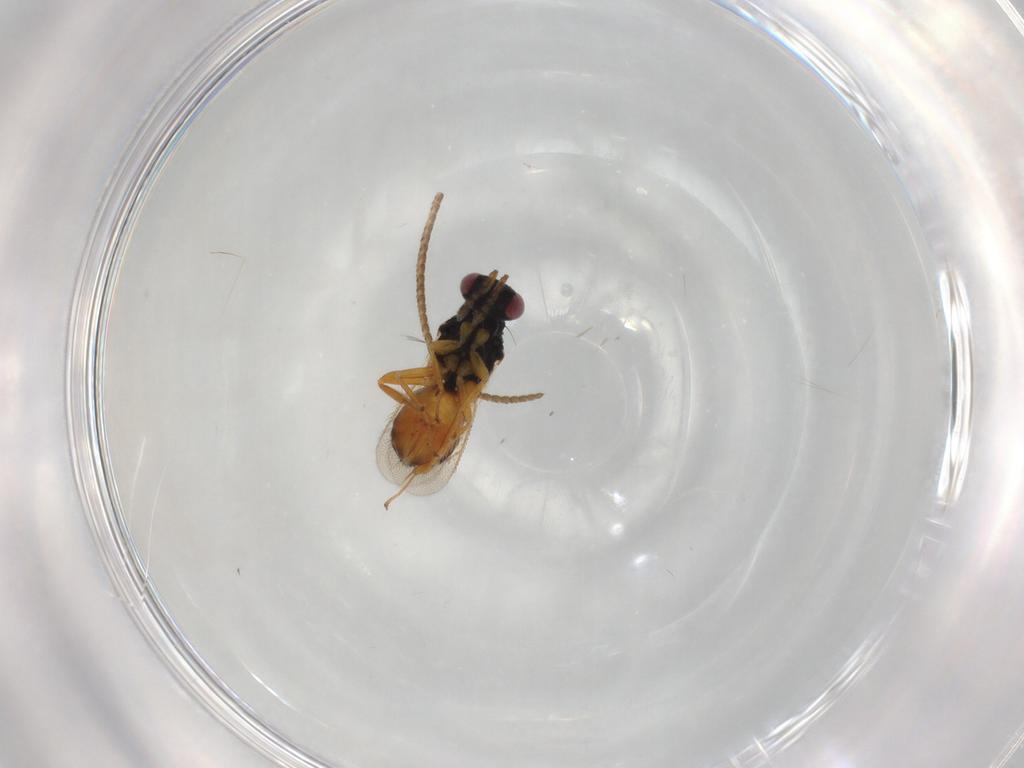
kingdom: Animalia
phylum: Arthropoda
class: Insecta
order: Hymenoptera
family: Eulophidae
